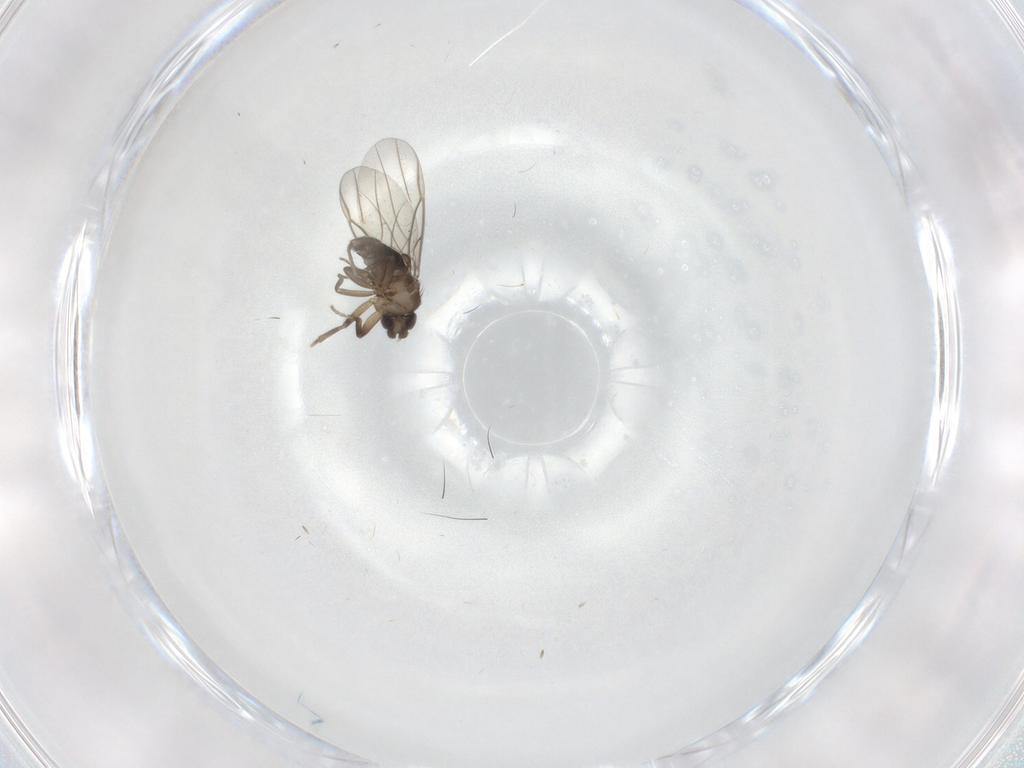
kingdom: Animalia
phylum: Arthropoda
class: Insecta
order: Diptera
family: Phoridae
